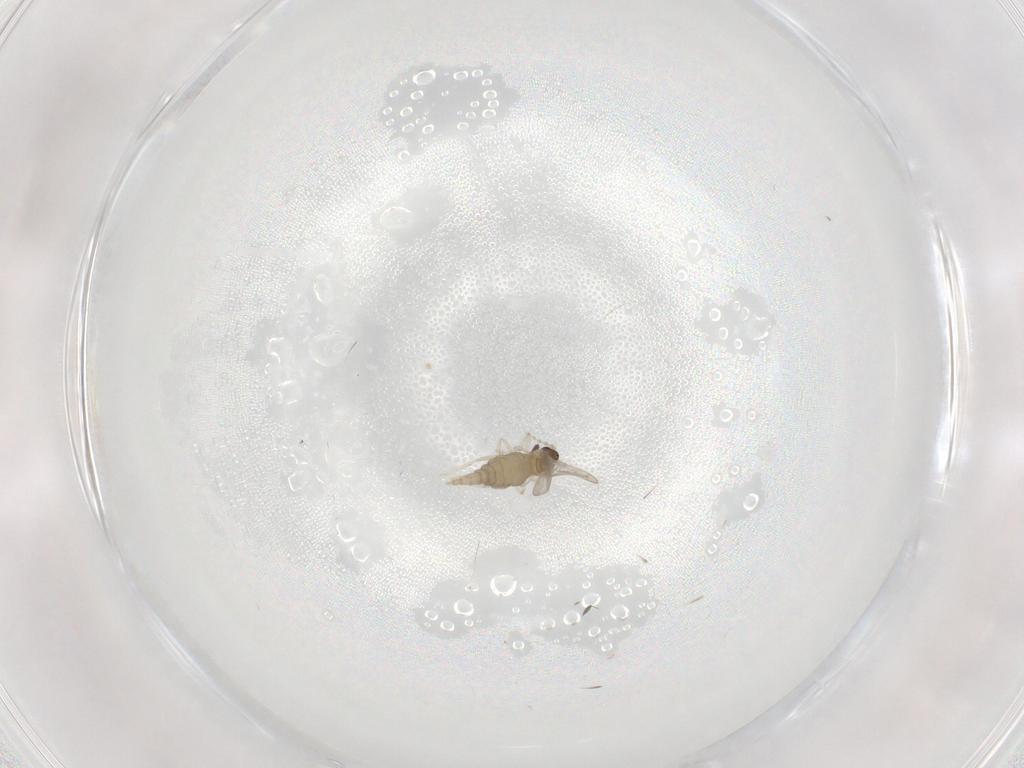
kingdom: Animalia
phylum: Arthropoda
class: Insecta
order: Diptera
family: Cecidomyiidae
